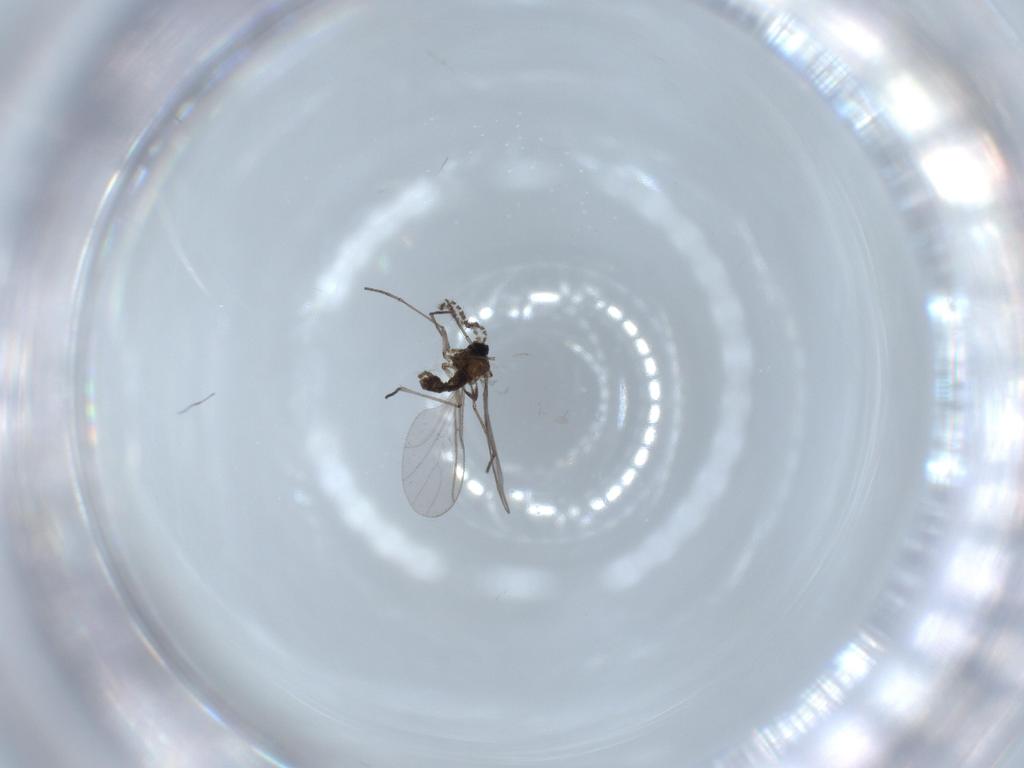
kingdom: Animalia
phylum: Arthropoda
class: Insecta
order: Diptera
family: Sciaridae
